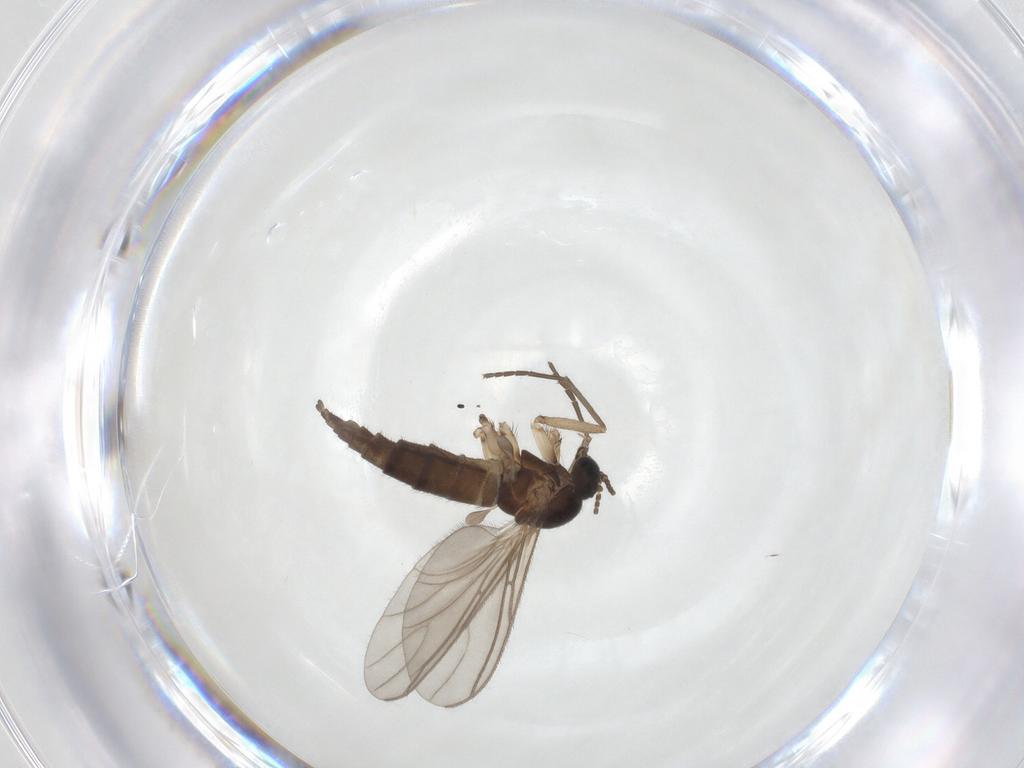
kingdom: Animalia
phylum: Arthropoda
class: Insecta
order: Diptera
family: Sciaridae
